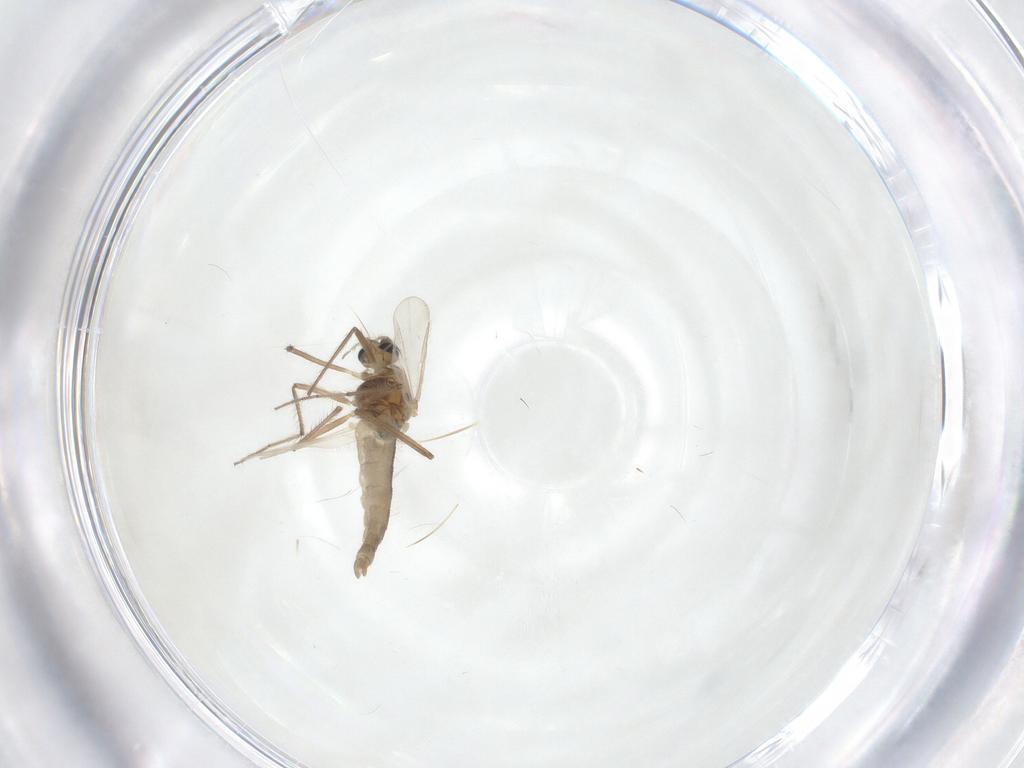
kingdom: Animalia
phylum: Arthropoda
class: Insecta
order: Diptera
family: Chironomidae
